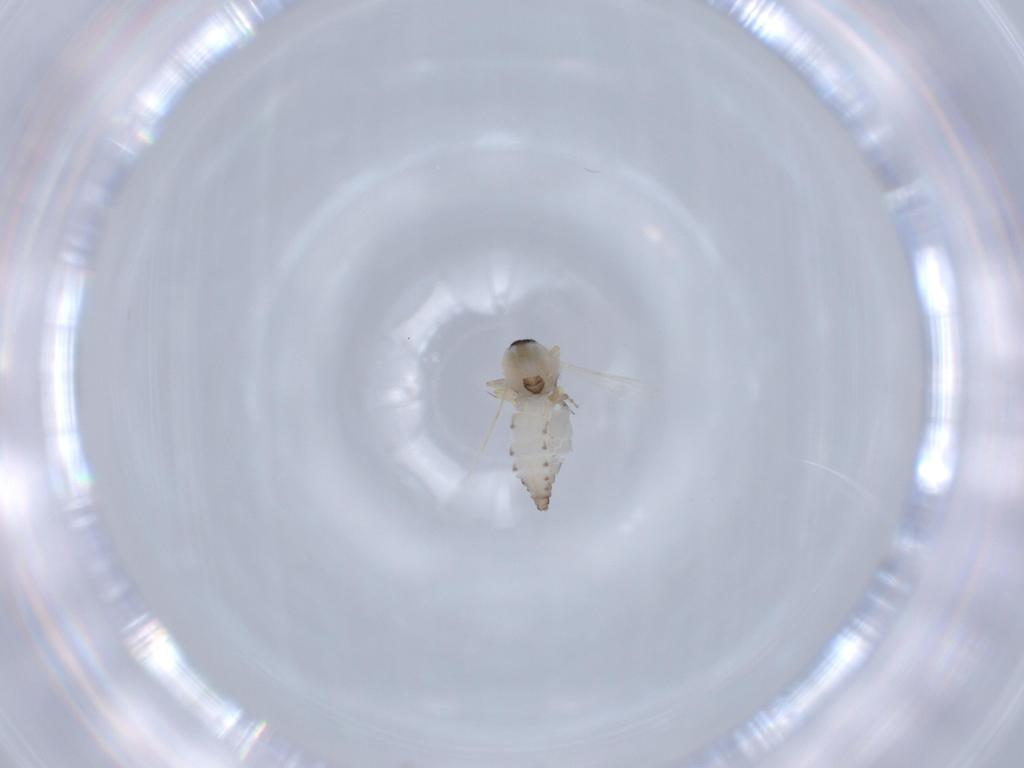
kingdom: Animalia
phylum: Arthropoda
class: Insecta
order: Diptera
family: Ceratopogonidae
